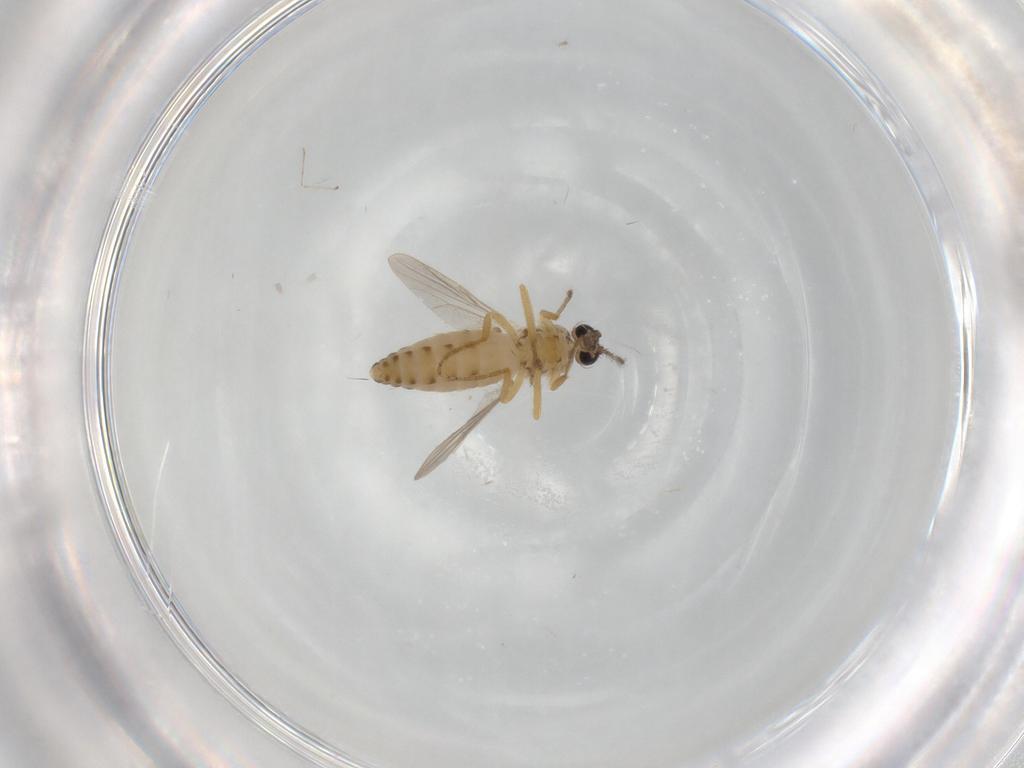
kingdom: Animalia
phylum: Arthropoda
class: Insecta
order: Diptera
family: Ceratopogonidae
